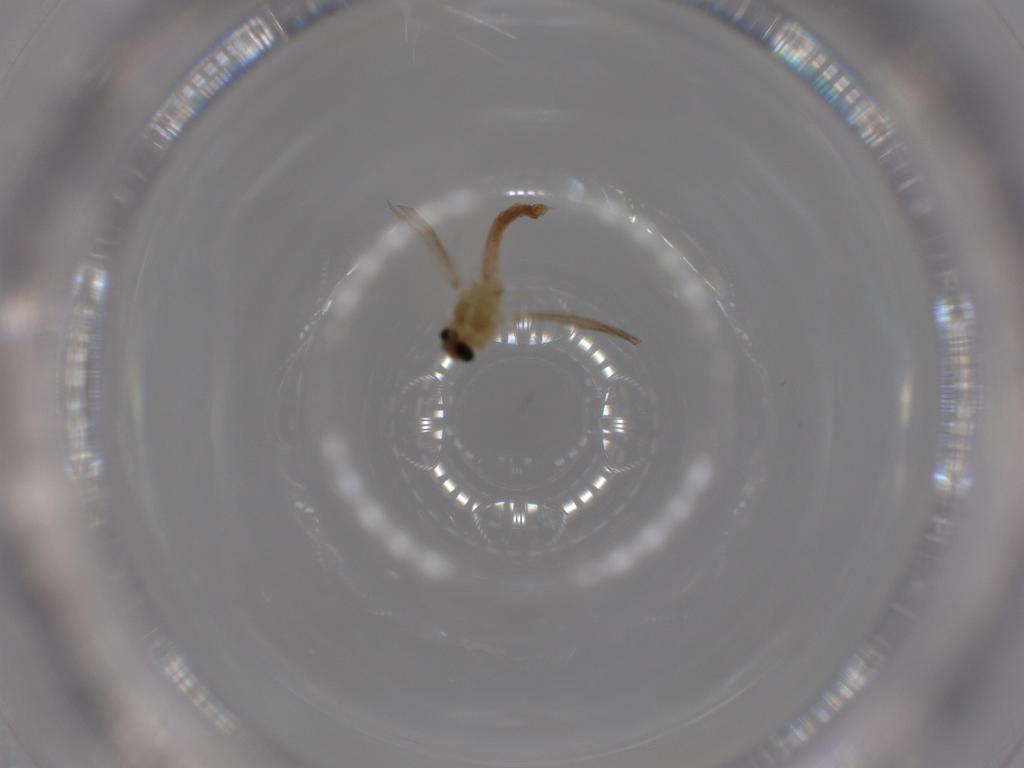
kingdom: Animalia
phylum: Arthropoda
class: Insecta
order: Diptera
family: Chironomidae
